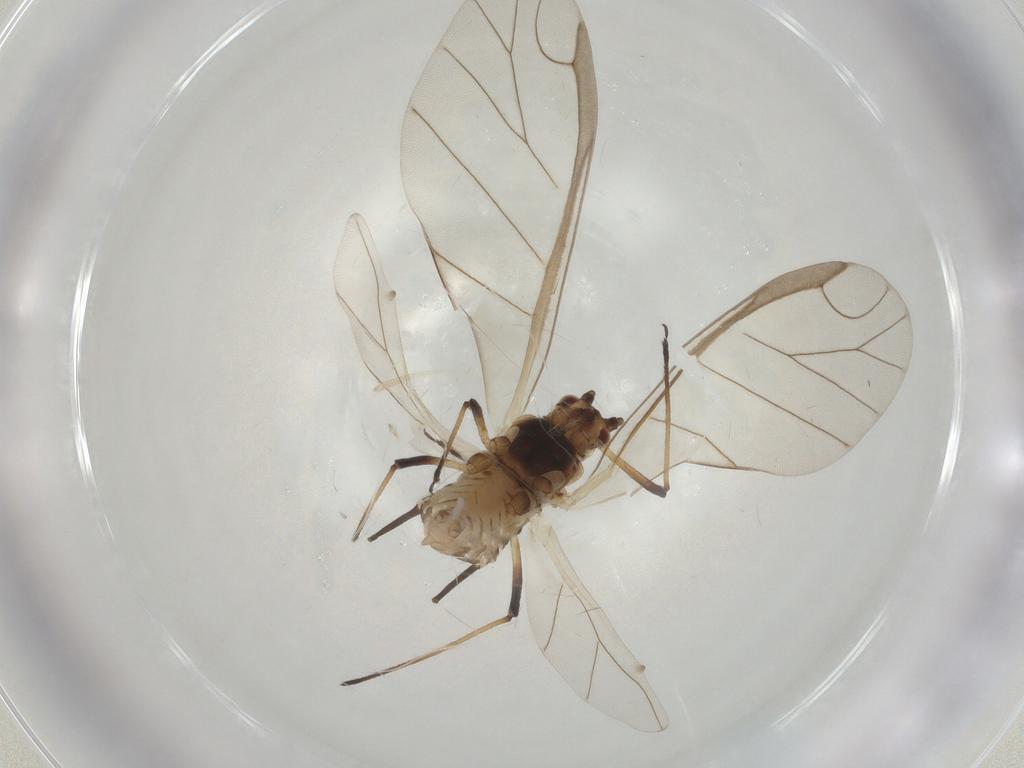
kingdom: Animalia
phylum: Arthropoda
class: Insecta
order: Hemiptera
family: Aphididae
